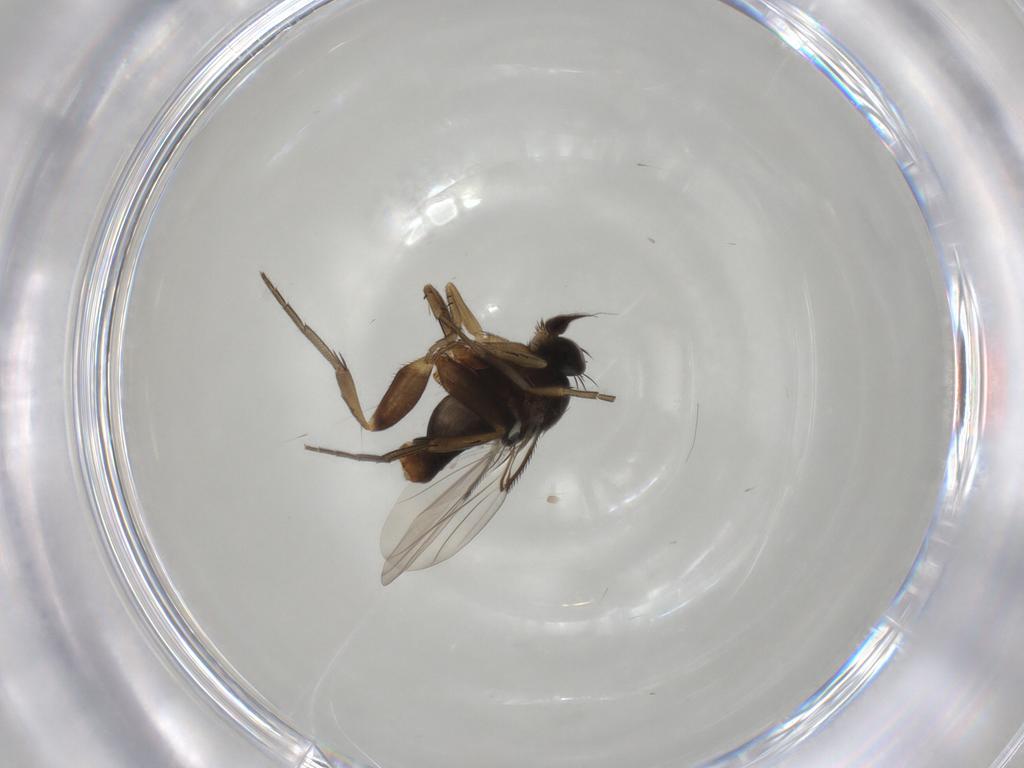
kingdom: Animalia
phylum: Arthropoda
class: Insecta
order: Diptera
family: Phoridae
